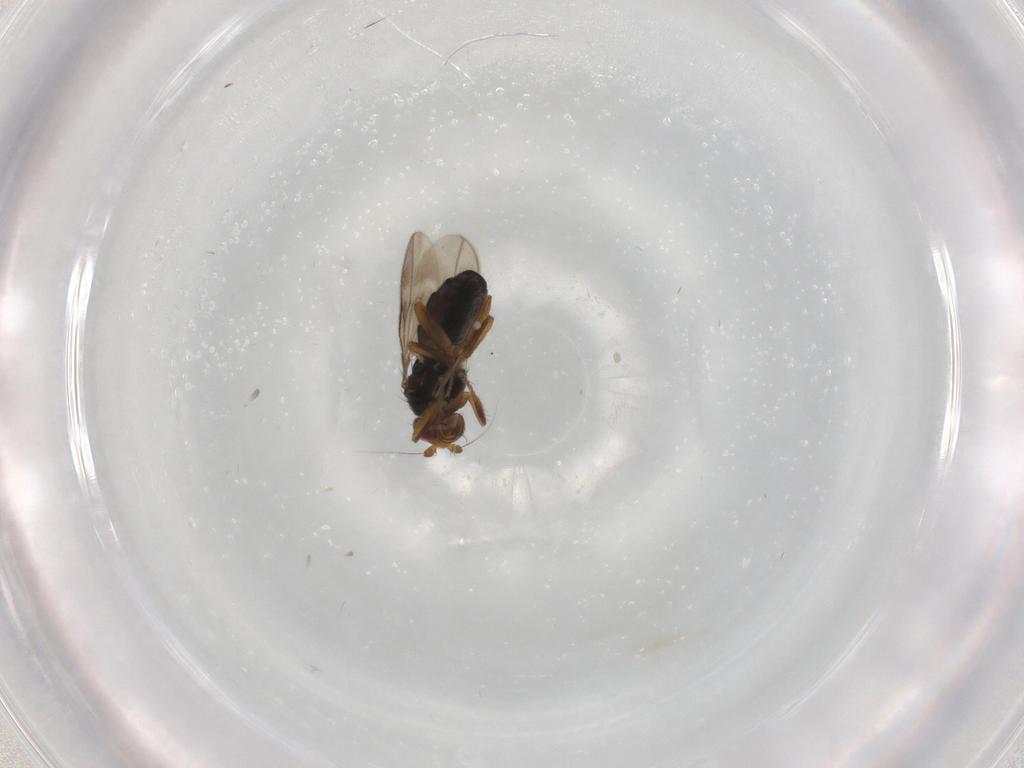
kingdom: Animalia
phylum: Arthropoda
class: Insecta
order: Diptera
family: Sphaeroceridae
